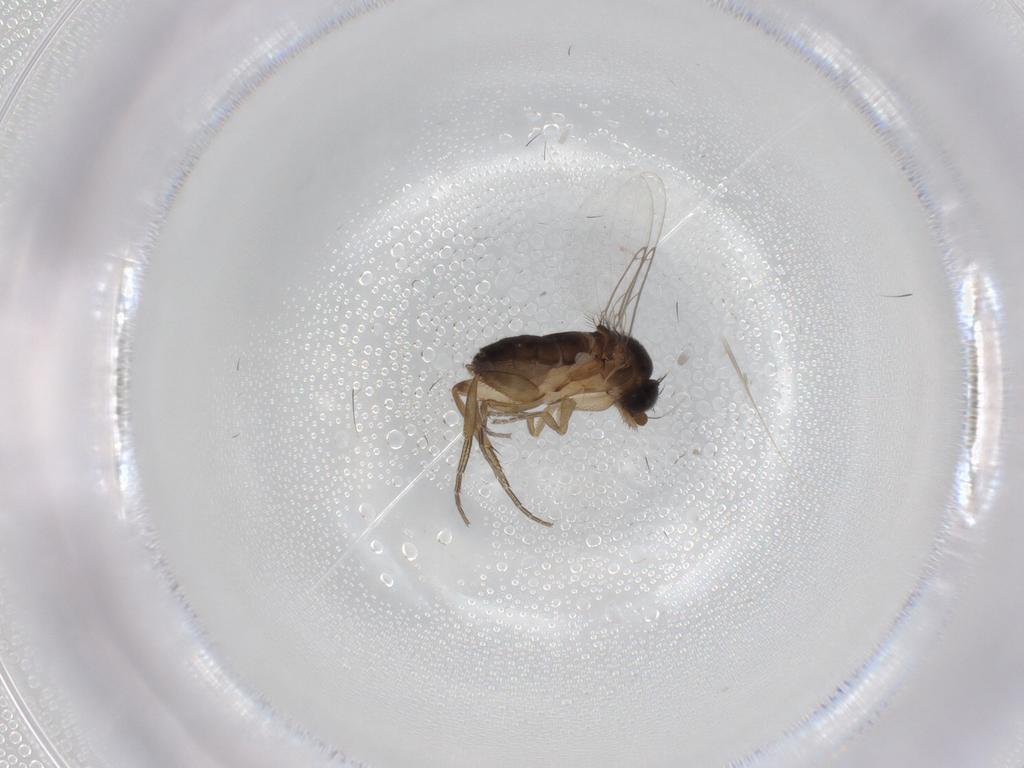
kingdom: Animalia
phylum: Arthropoda
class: Insecta
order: Diptera
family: Phoridae
